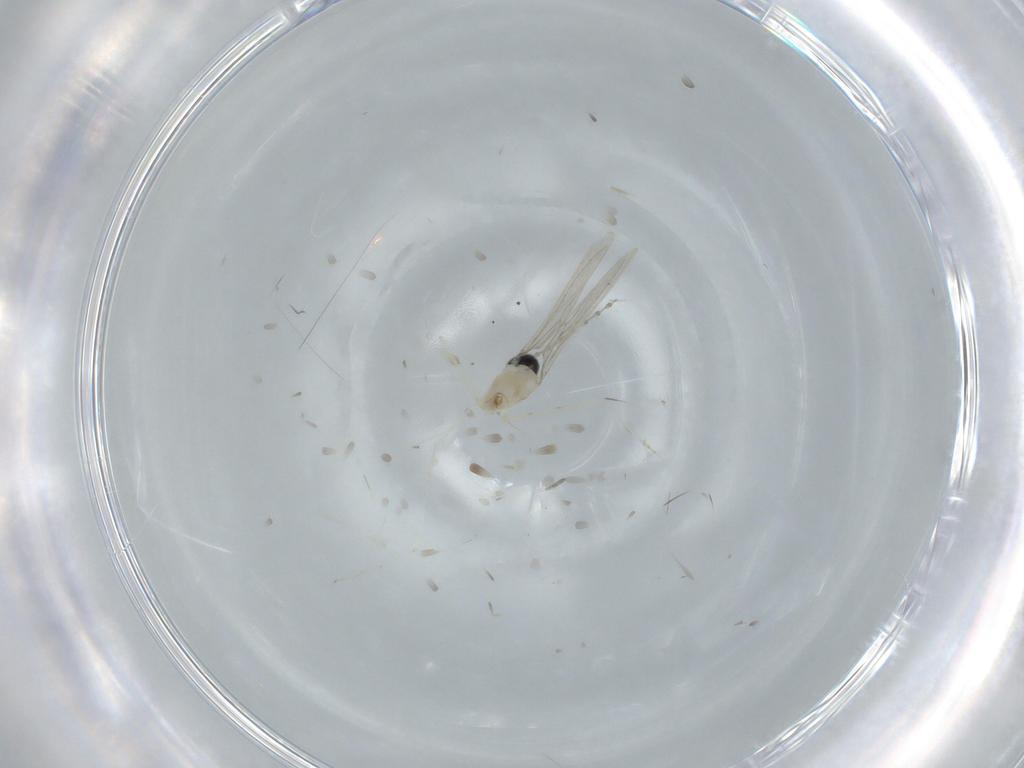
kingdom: Animalia
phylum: Arthropoda
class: Insecta
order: Diptera
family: Cecidomyiidae
